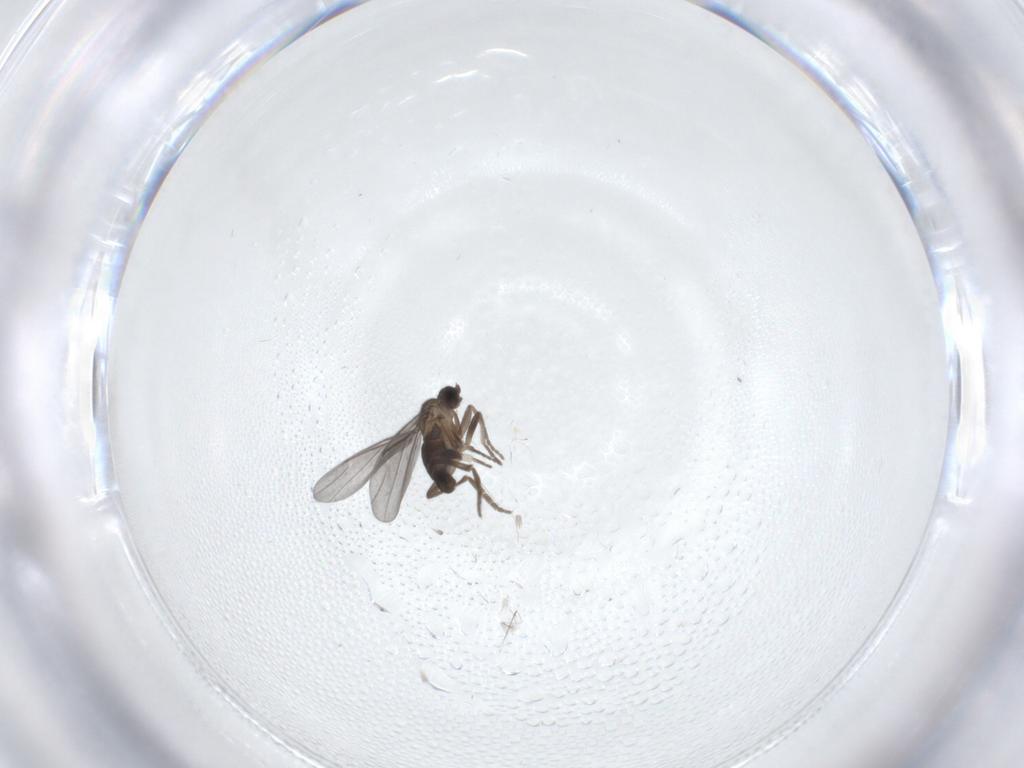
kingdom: Animalia
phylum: Arthropoda
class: Insecta
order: Diptera
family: Phoridae
